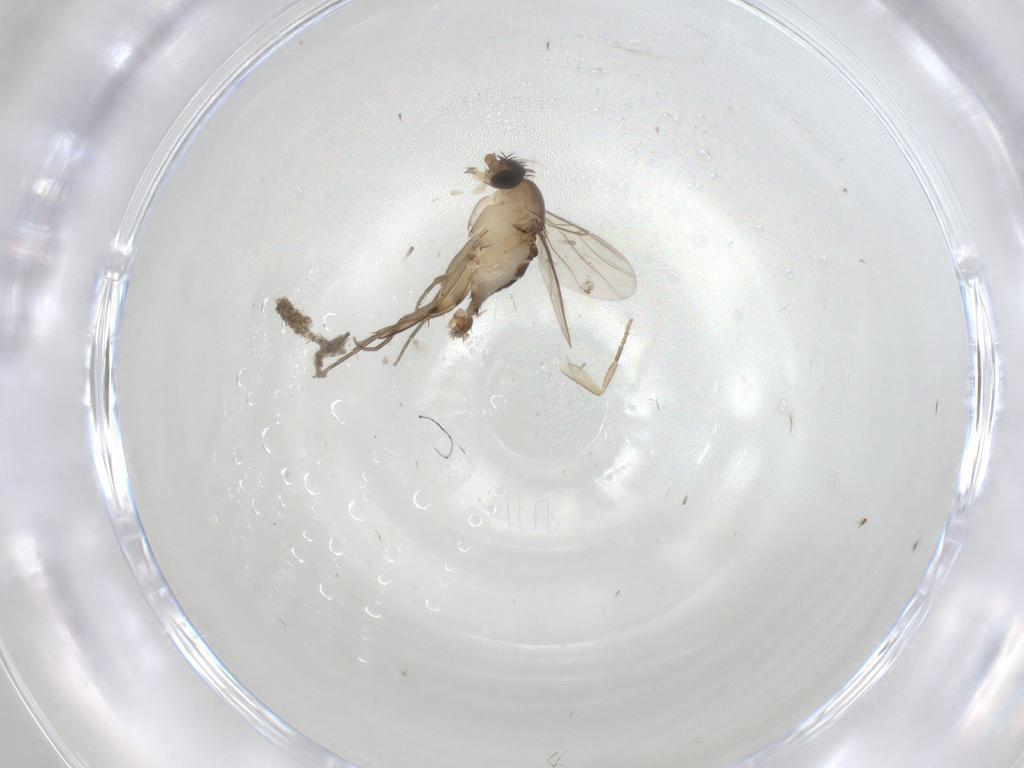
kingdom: Animalia
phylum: Arthropoda
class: Insecta
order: Diptera
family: Phoridae
